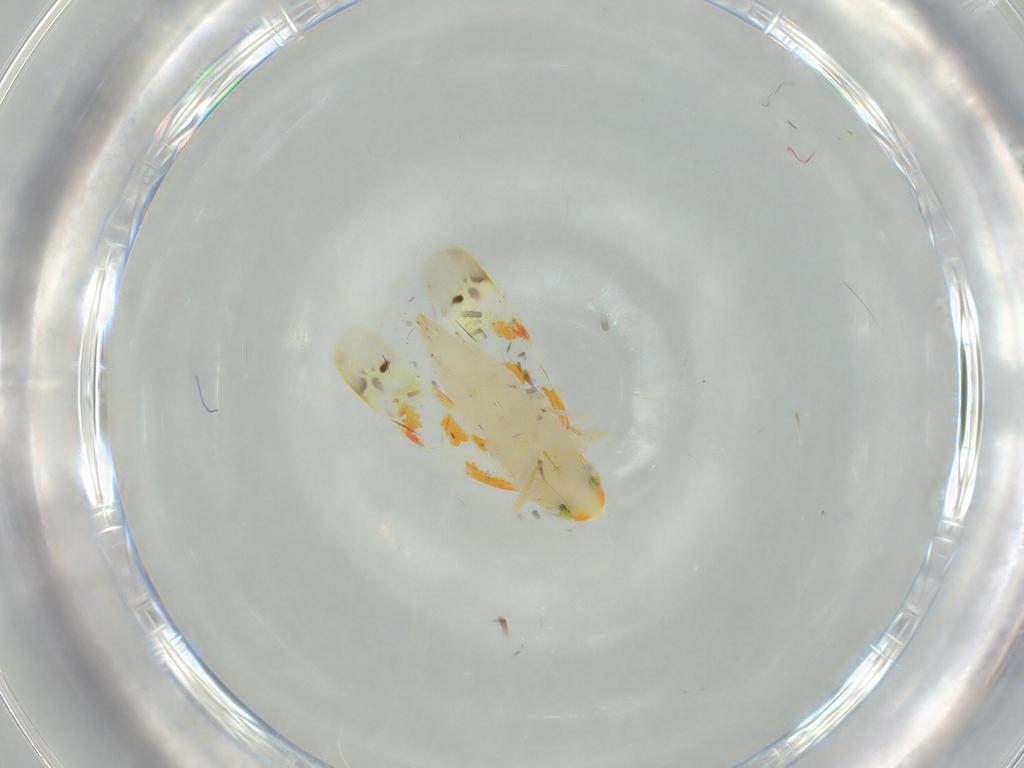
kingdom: Animalia
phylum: Arthropoda
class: Insecta
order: Hemiptera
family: Cicadellidae
